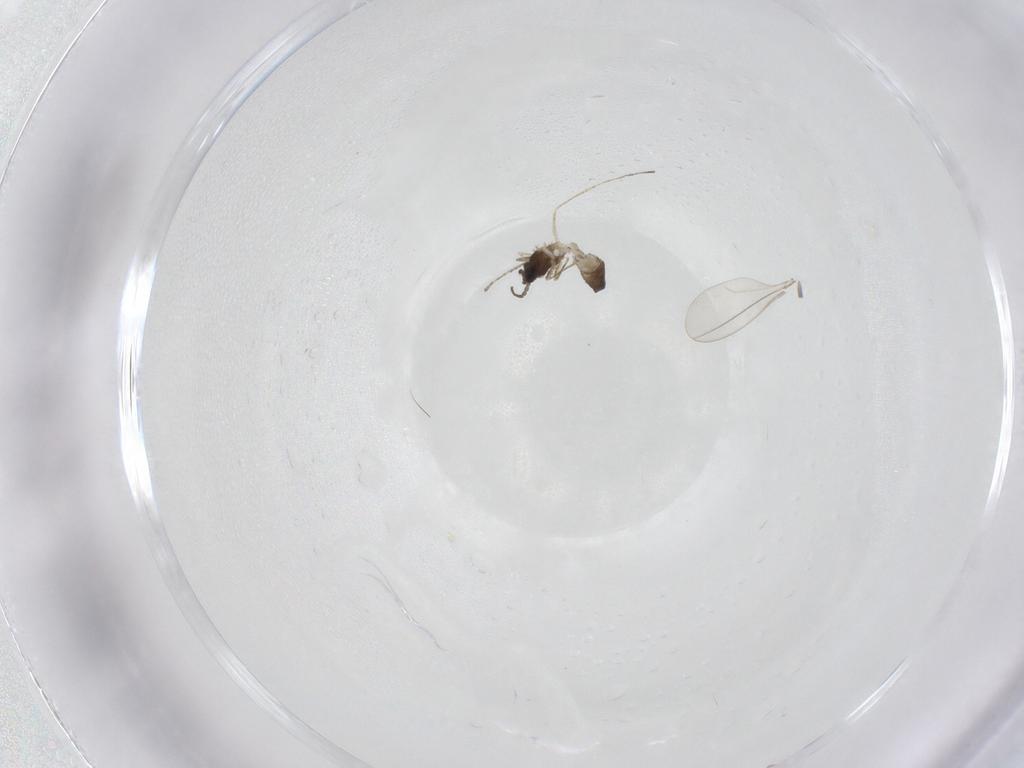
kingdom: Animalia
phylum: Arthropoda
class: Insecta
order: Diptera
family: Cecidomyiidae
